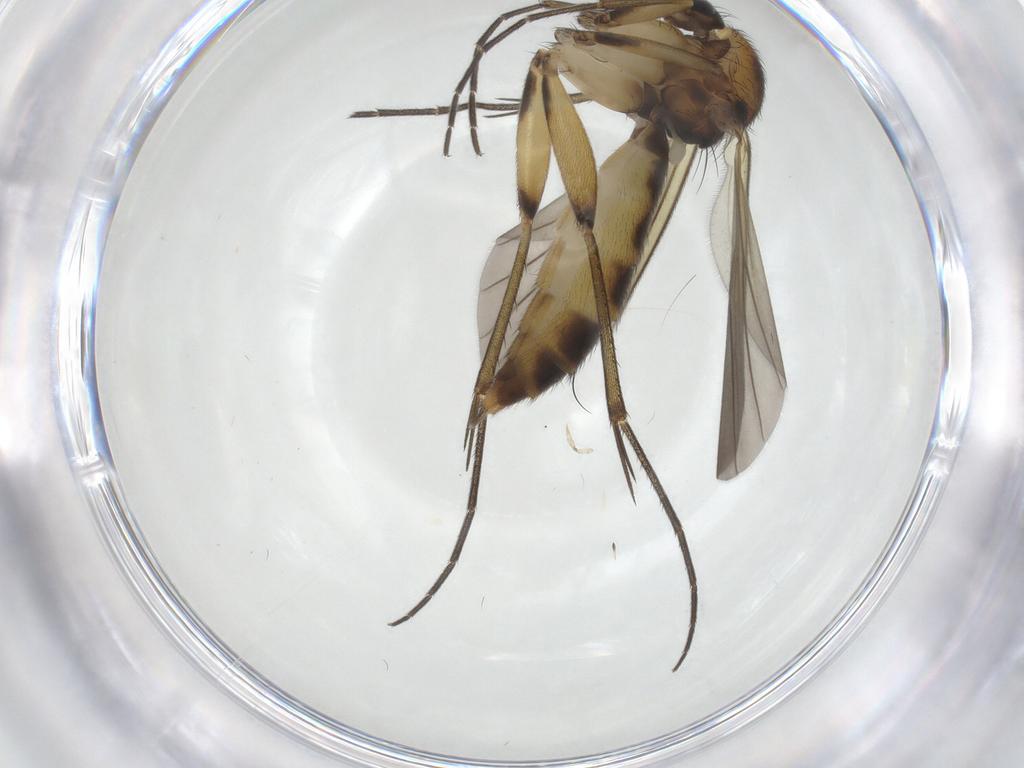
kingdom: Animalia
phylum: Arthropoda
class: Insecta
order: Diptera
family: Mycetophilidae
